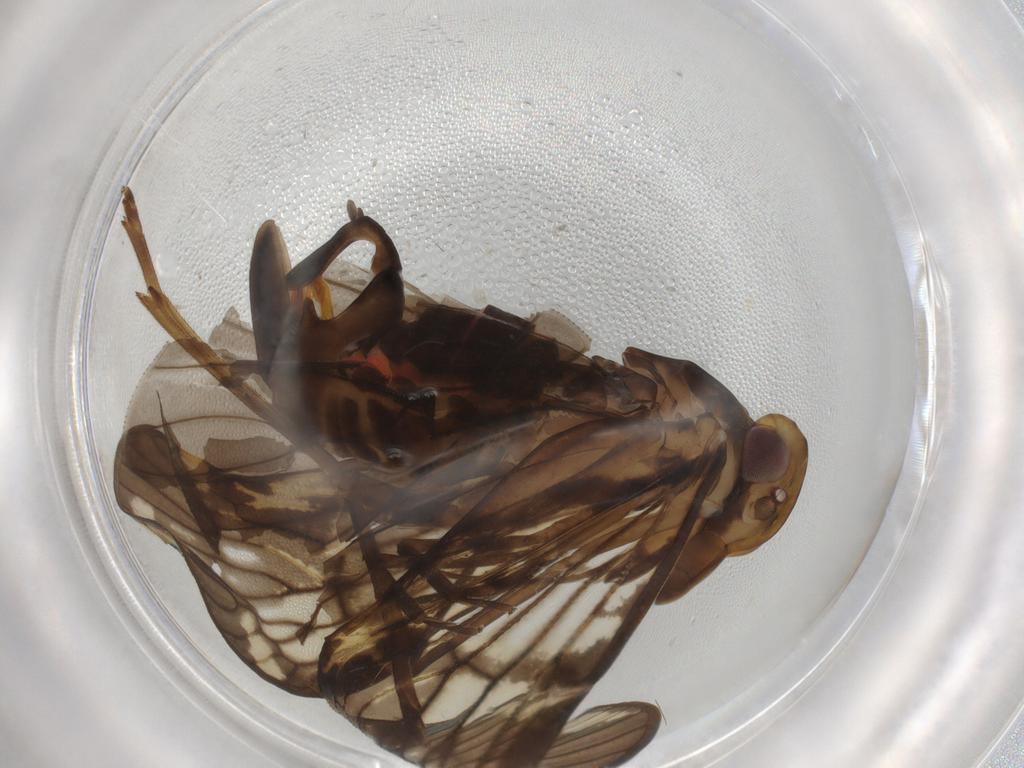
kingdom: Animalia
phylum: Arthropoda
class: Insecta
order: Hemiptera
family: Cixiidae
